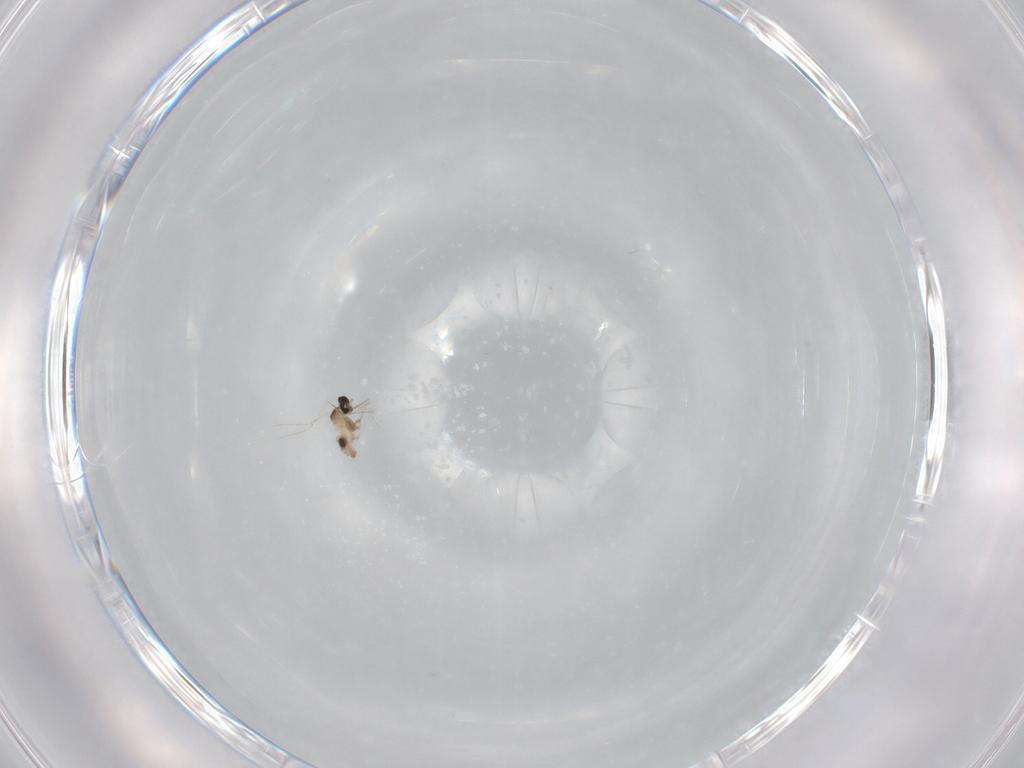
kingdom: Animalia
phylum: Arthropoda
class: Insecta
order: Diptera
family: Cecidomyiidae
